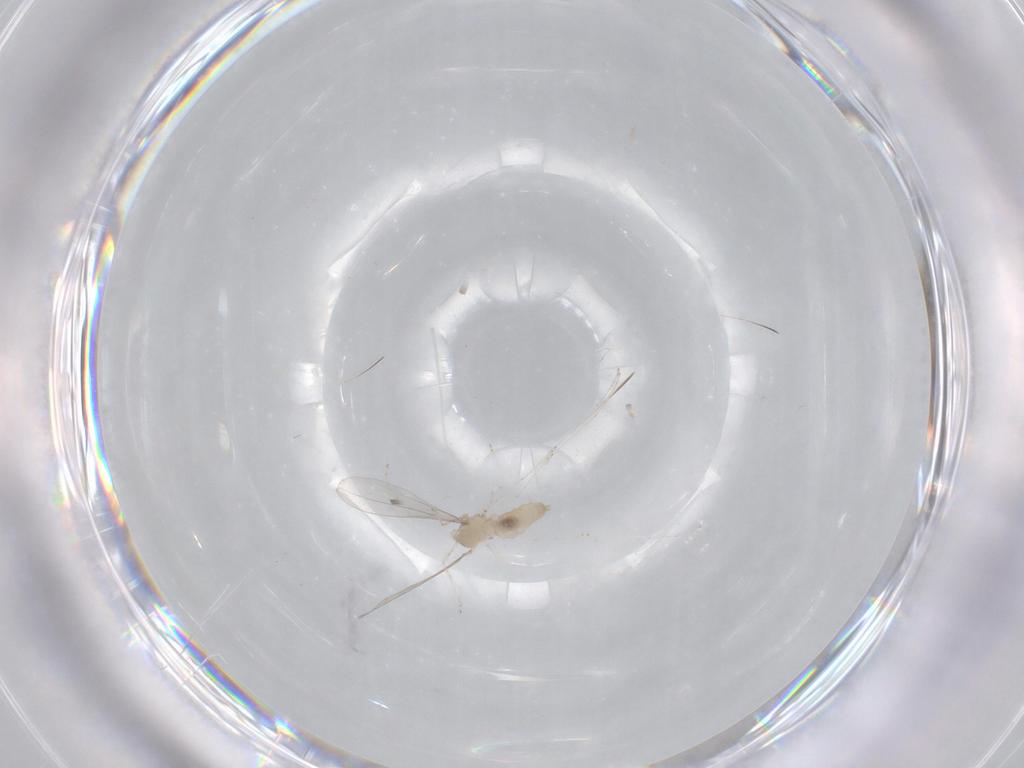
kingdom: Animalia
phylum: Arthropoda
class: Insecta
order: Diptera
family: Chironomidae
